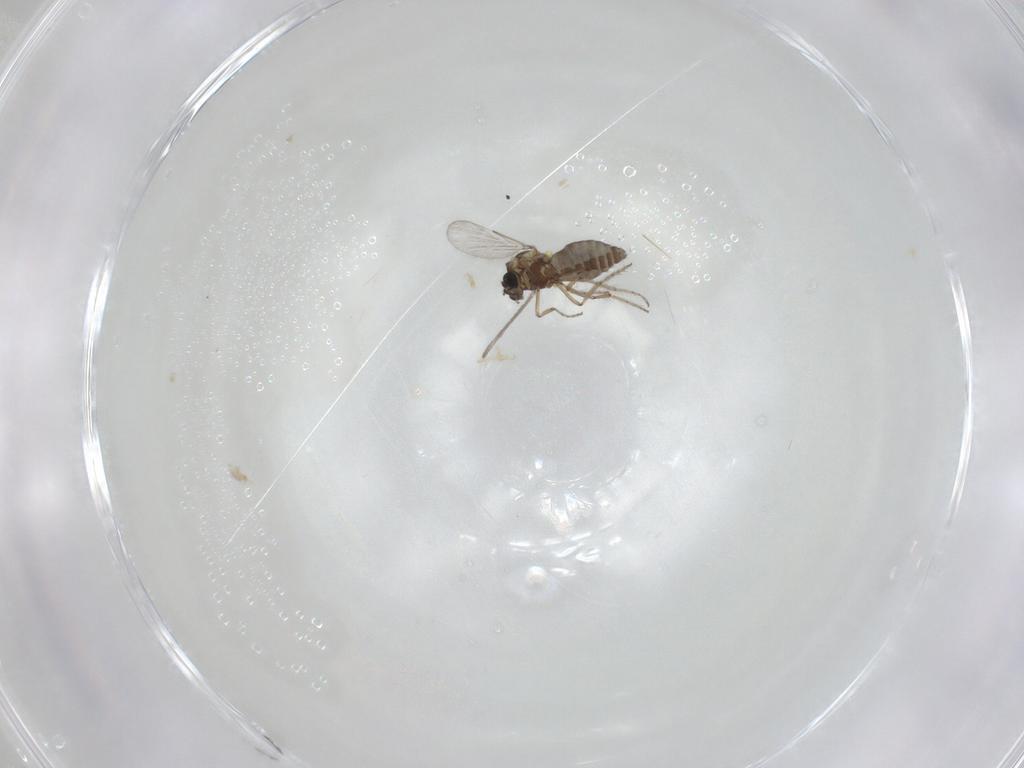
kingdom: Animalia
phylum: Arthropoda
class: Insecta
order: Diptera
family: Ceratopogonidae
